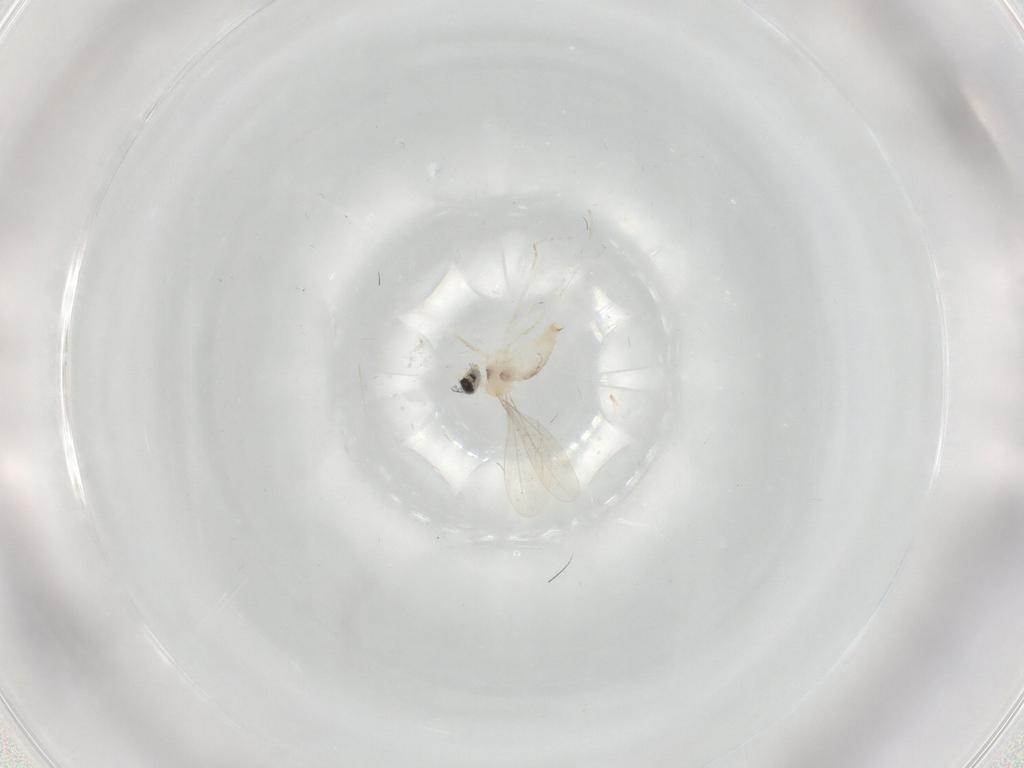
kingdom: Animalia
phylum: Arthropoda
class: Insecta
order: Diptera
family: Cecidomyiidae
